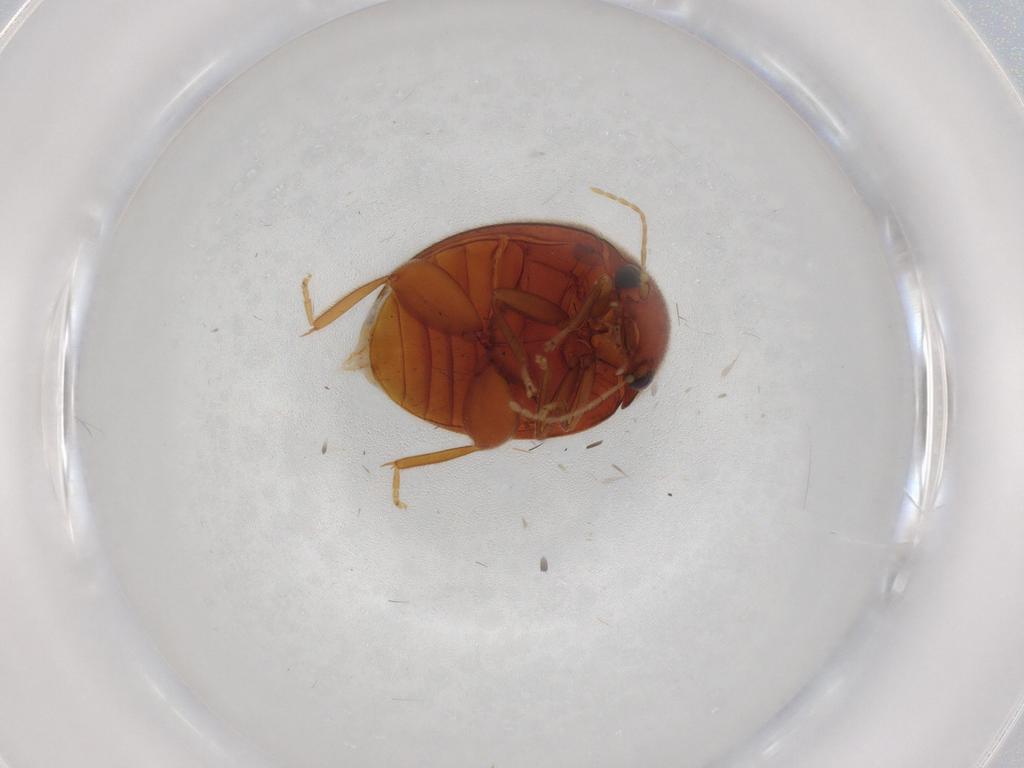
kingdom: Animalia
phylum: Arthropoda
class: Insecta
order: Coleoptera
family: Scirtidae
